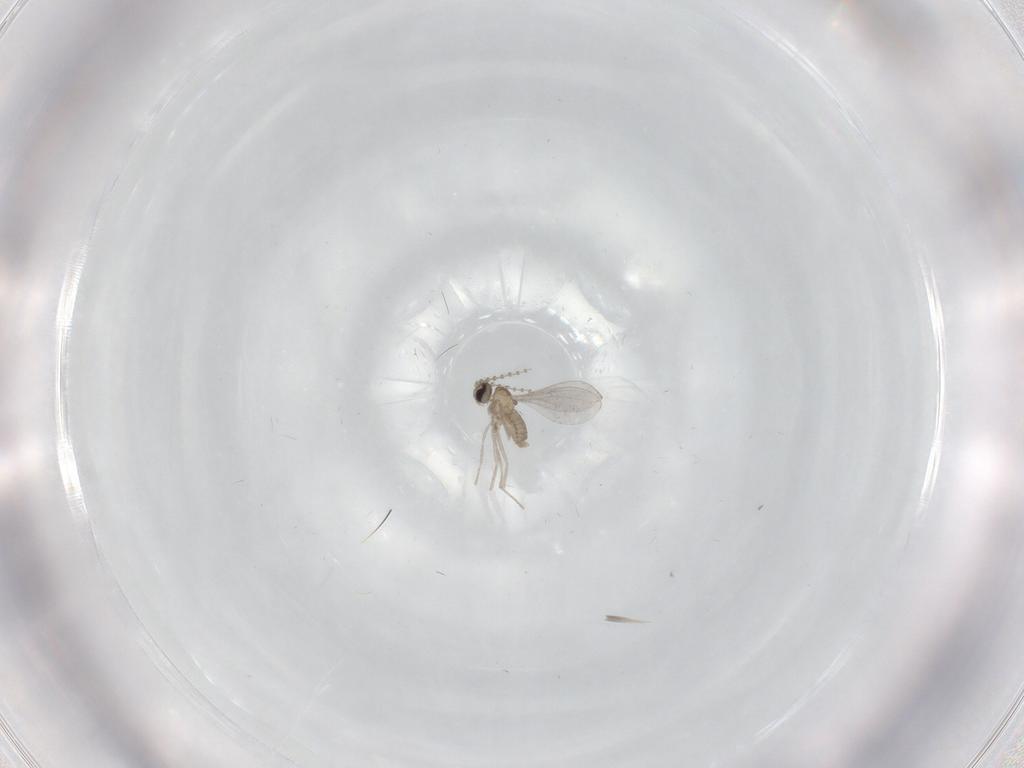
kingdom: Animalia
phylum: Arthropoda
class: Insecta
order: Diptera
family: Cecidomyiidae
